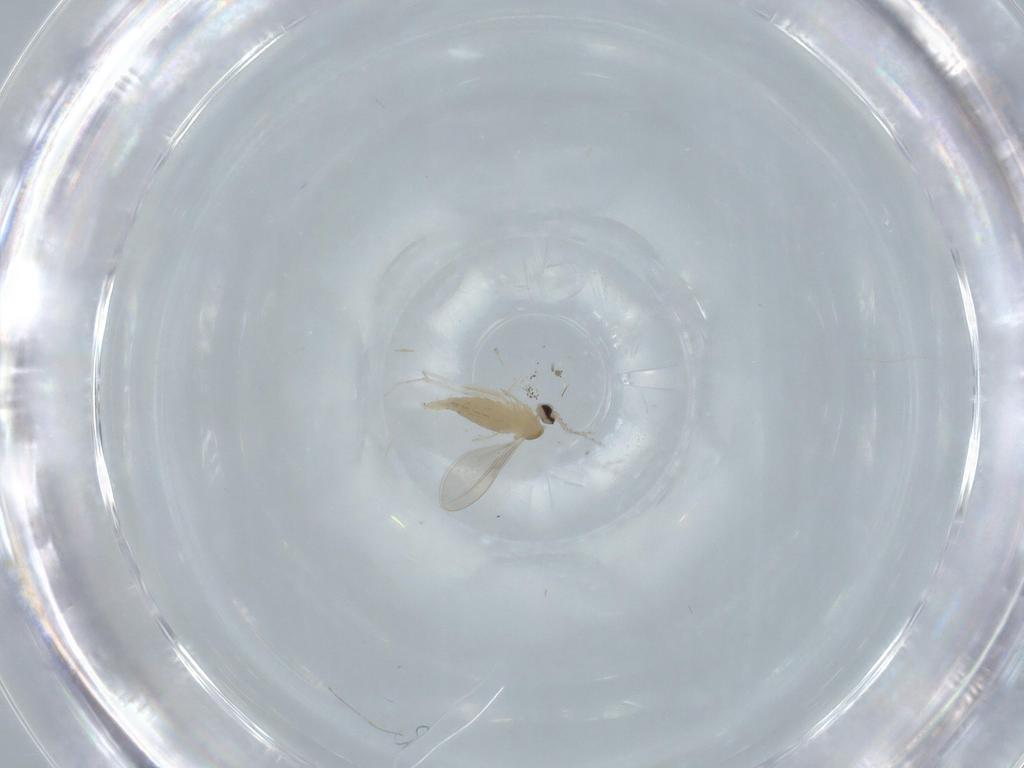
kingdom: Animalia
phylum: Arthropoda
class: Insecta
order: Diptera
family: Cecidomyiidae
